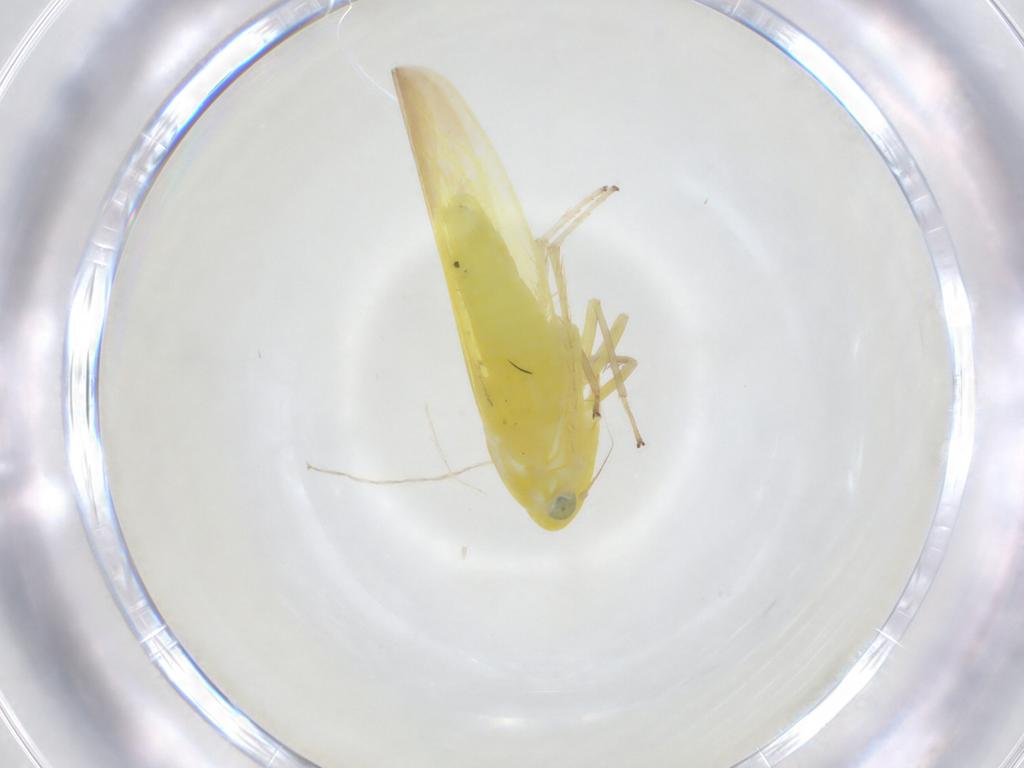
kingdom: Animalia
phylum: Arthropoda
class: Insecta
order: Hemiptera
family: Cicadellidae
